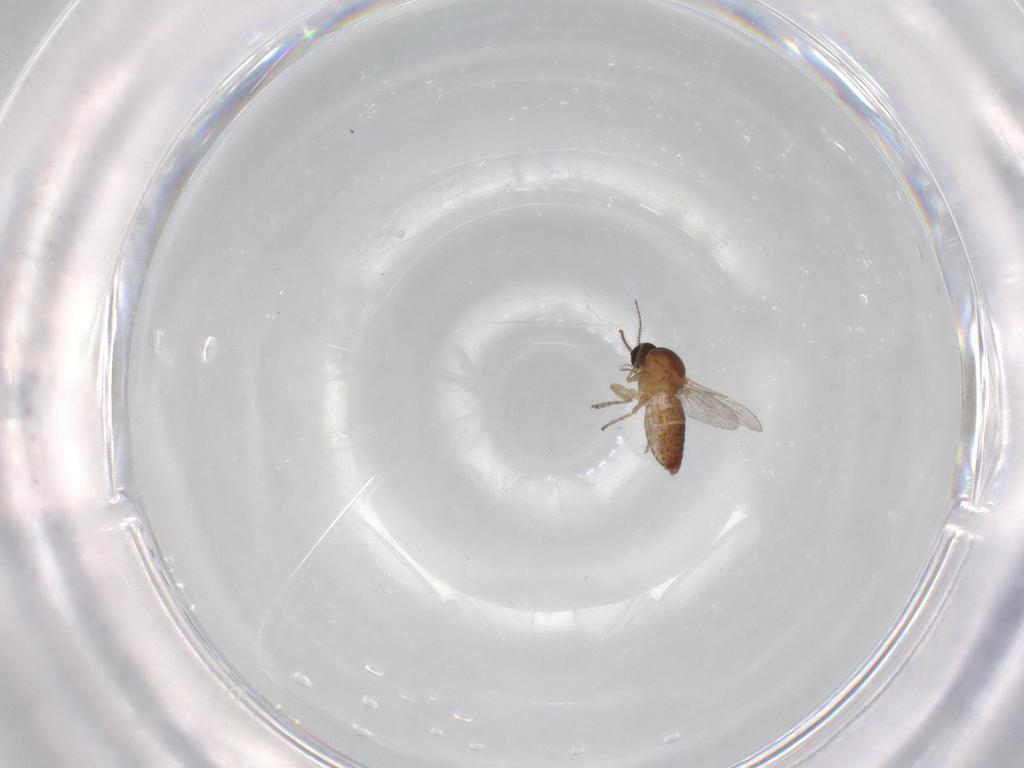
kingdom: Animalia
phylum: Arthropoda
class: Insecta
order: Diptera
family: Ceratopogonidae
